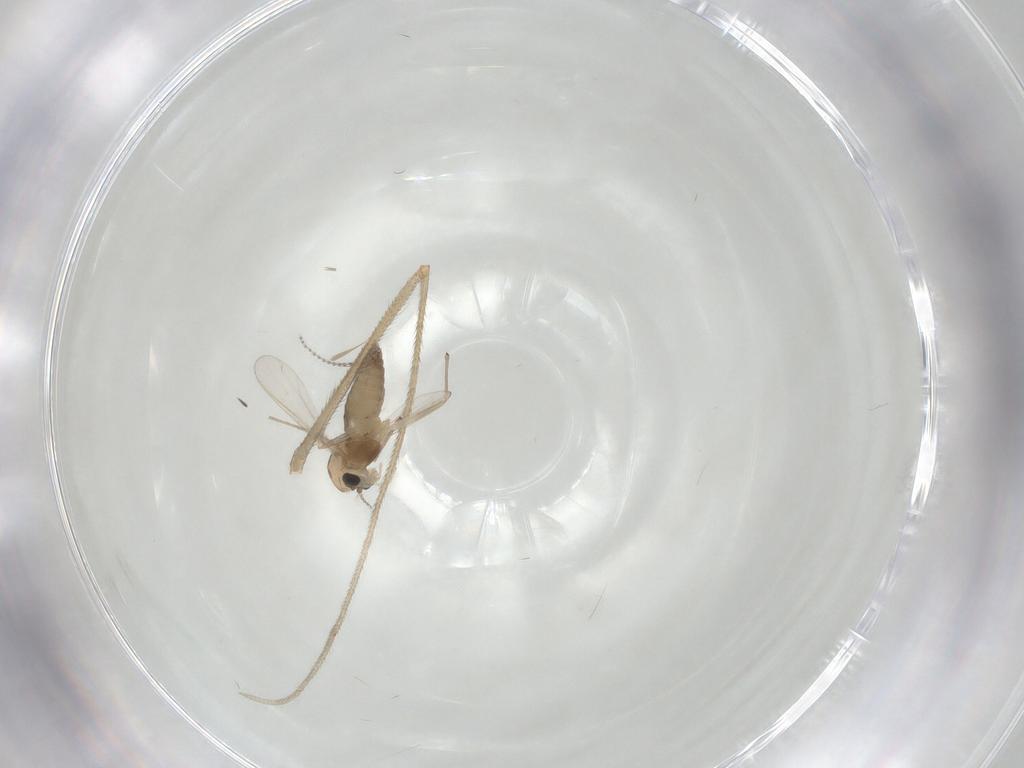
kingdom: Animalia
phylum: Arthropoda
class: Insecta
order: Diptera
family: Chironomidae
